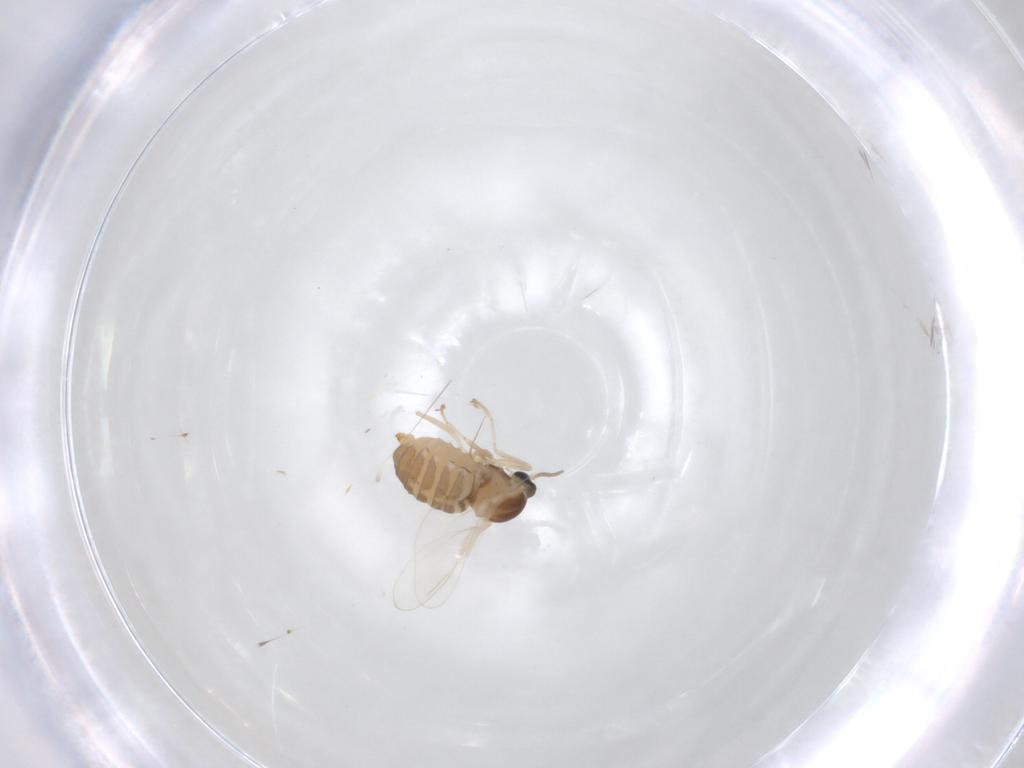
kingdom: Animalia
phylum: Arthropoda
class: Insecta
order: Diptera
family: Cecidomyiidae
